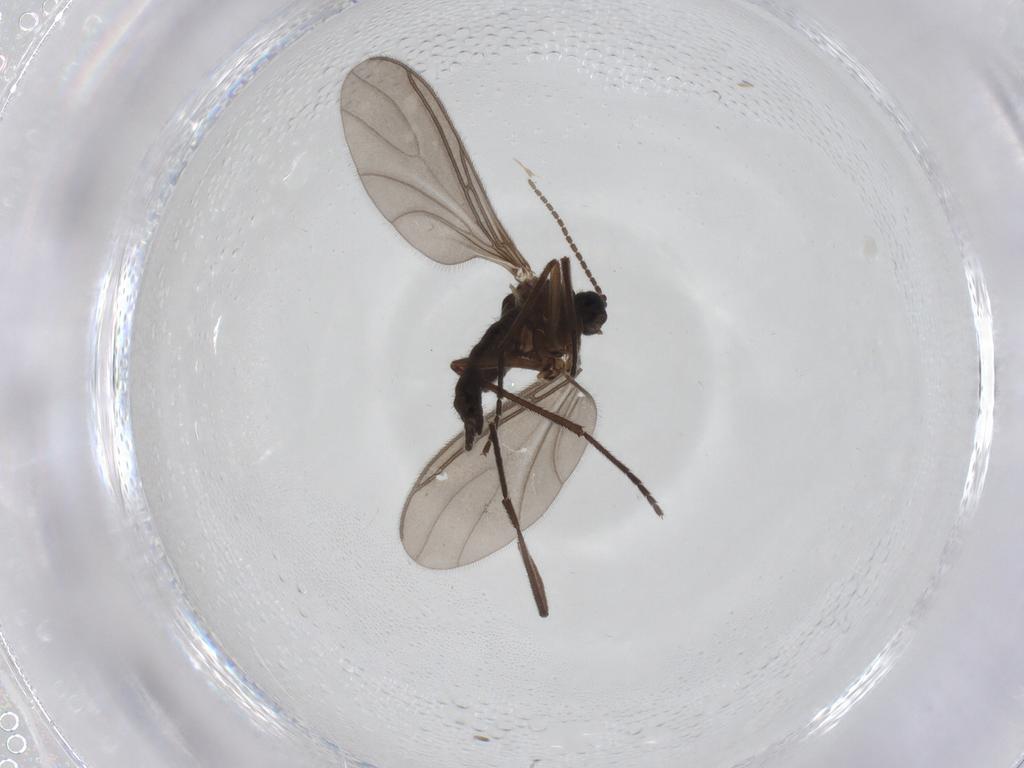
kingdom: Animalia
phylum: Arthropoda
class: Insecta
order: Diptera
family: Sciaridae
